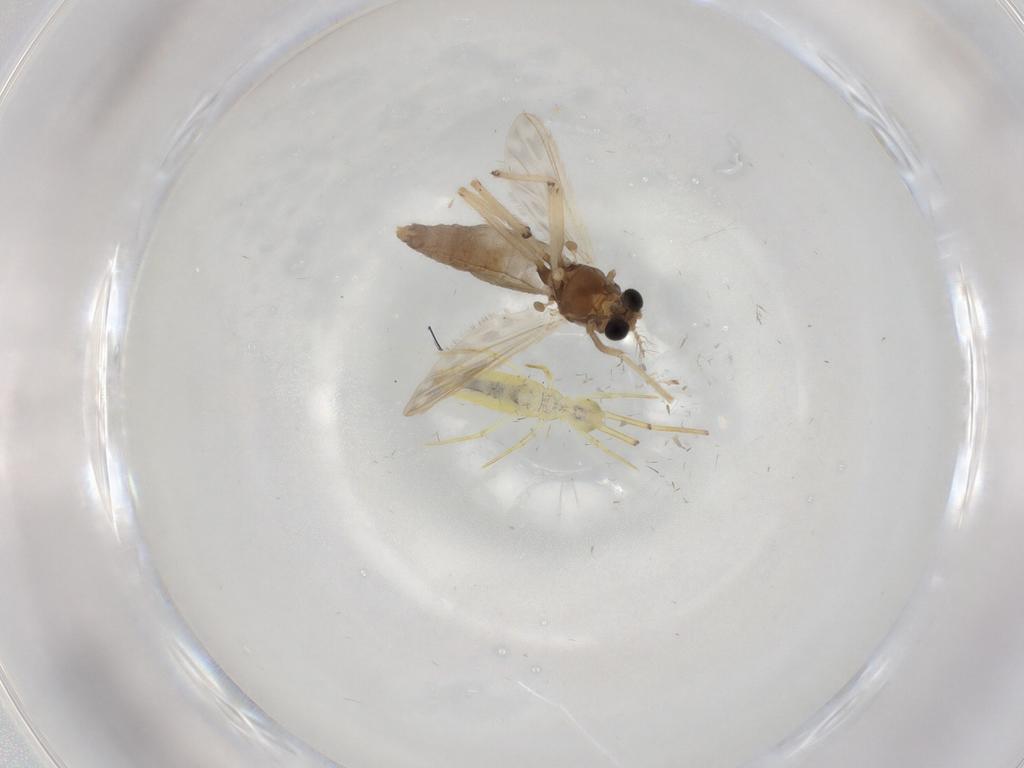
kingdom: Animalia
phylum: Arthropoda
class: Insecta
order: Diptera
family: Chironomidae
